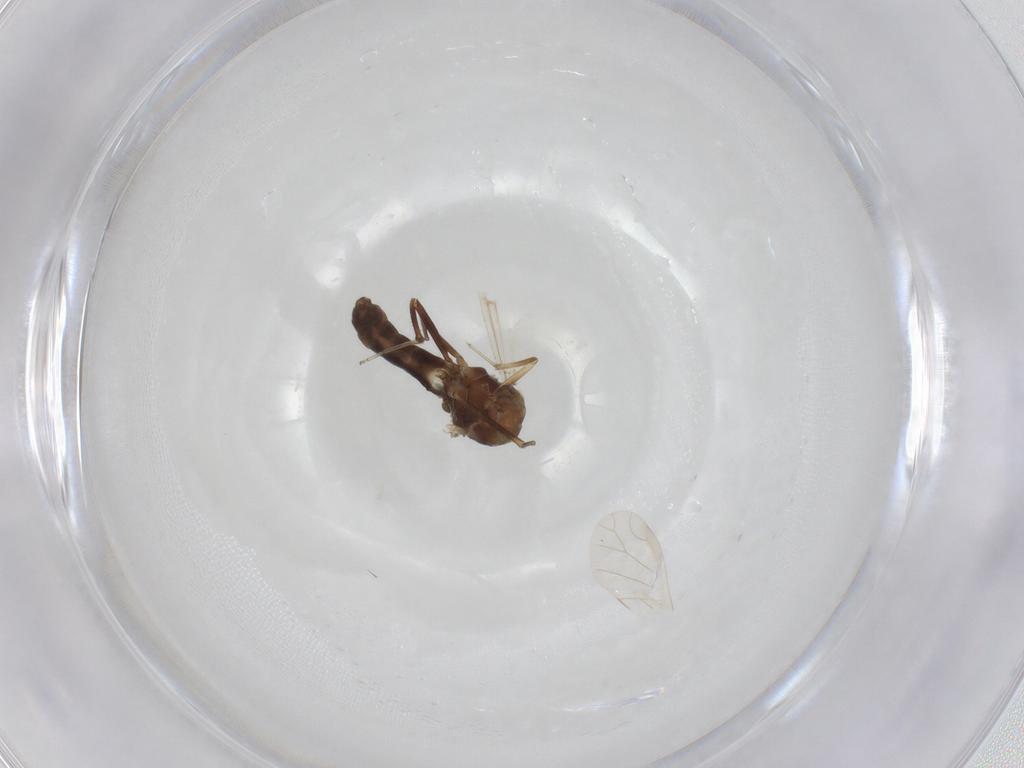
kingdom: Animalia
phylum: Arthropoda
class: Insecta
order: Diptera
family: Ceratopogonidae
